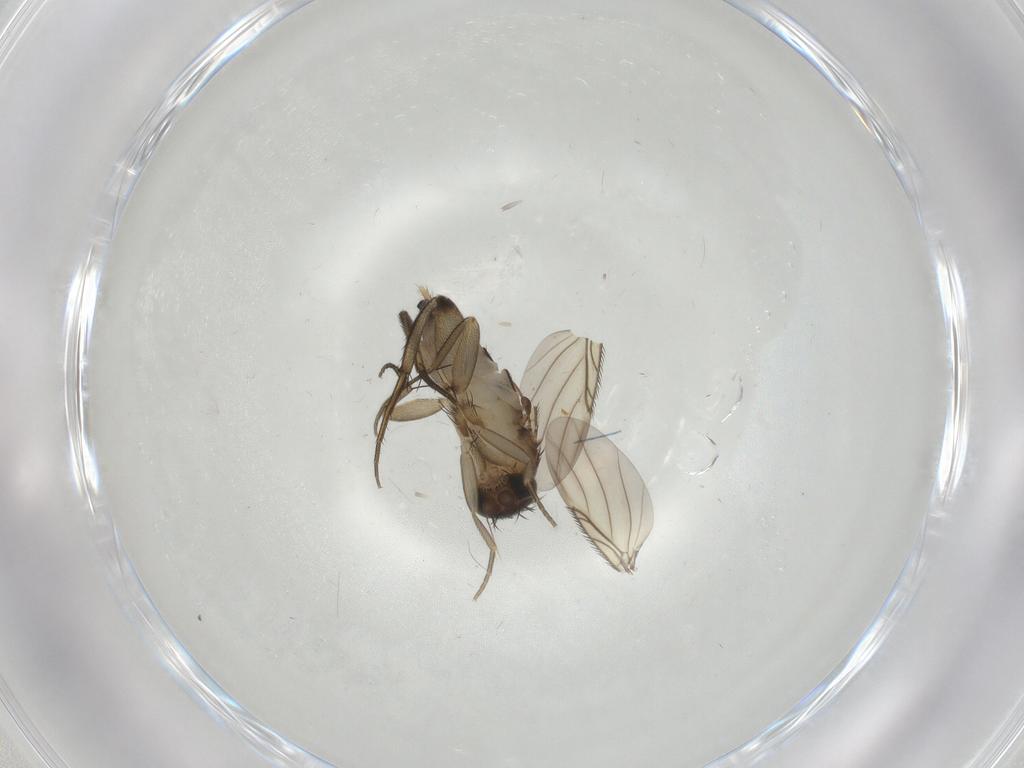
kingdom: Animalia
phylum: Arthropoda
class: Insecta
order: Diptera
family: Phoridae
